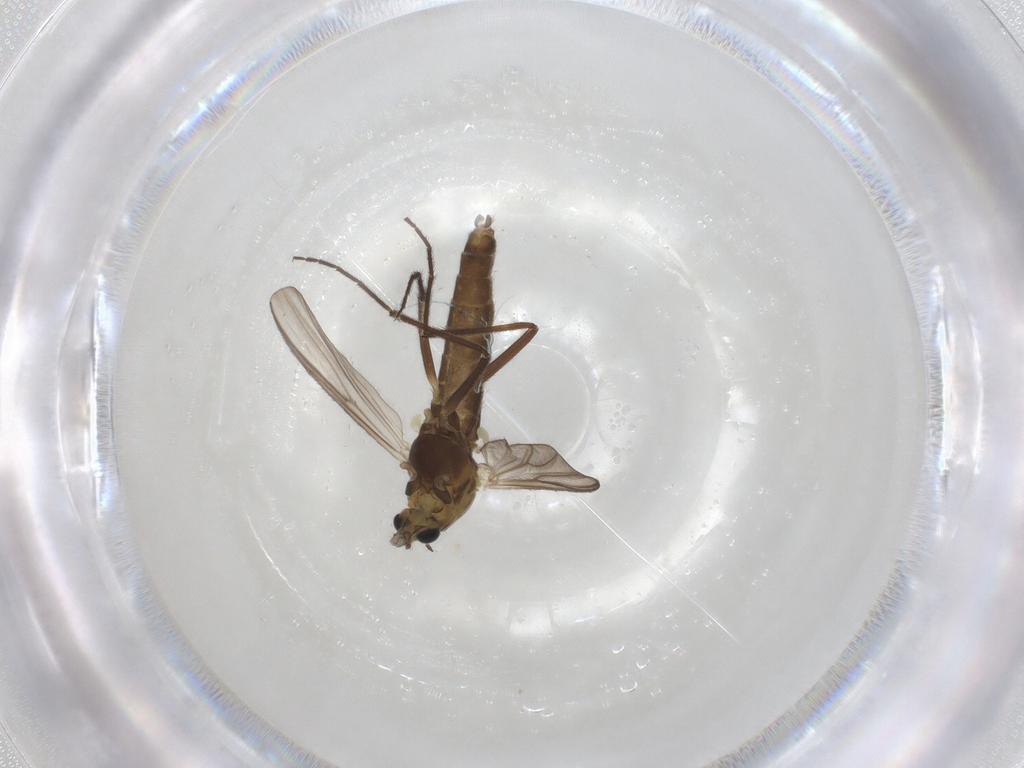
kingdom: Animalia
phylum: Arthropoda
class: Insecta
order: Diptera
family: Chironomidae
